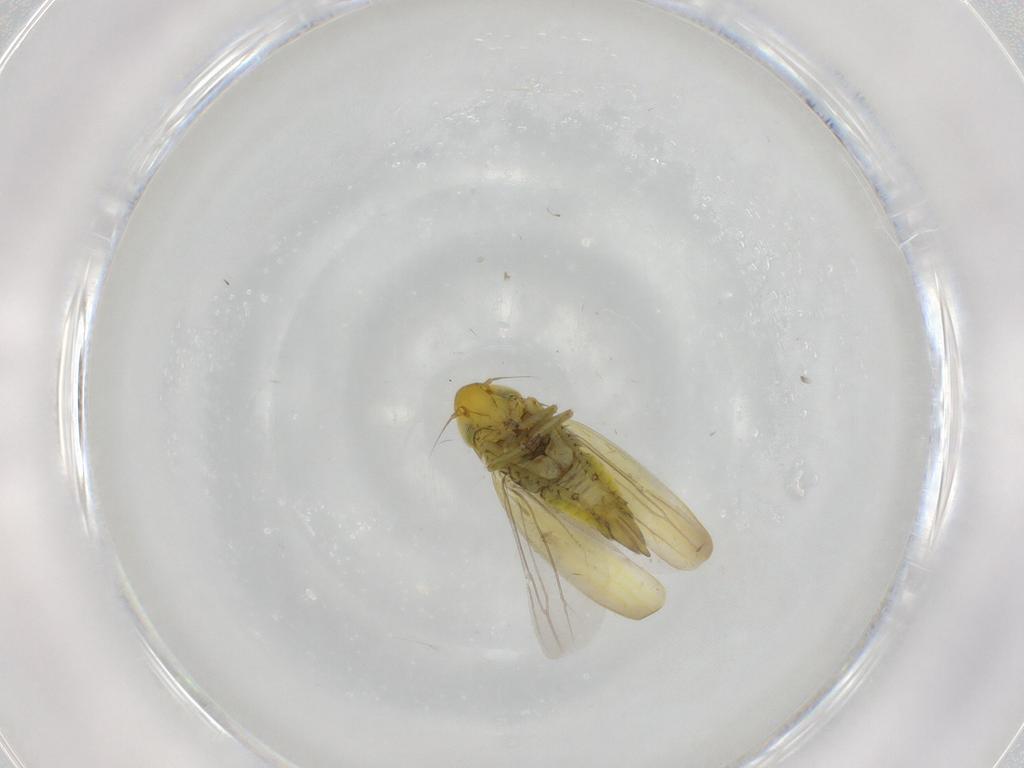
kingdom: Animalia
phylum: Arthropoda
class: Insecta
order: Hemiptera
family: Cicadellidae
